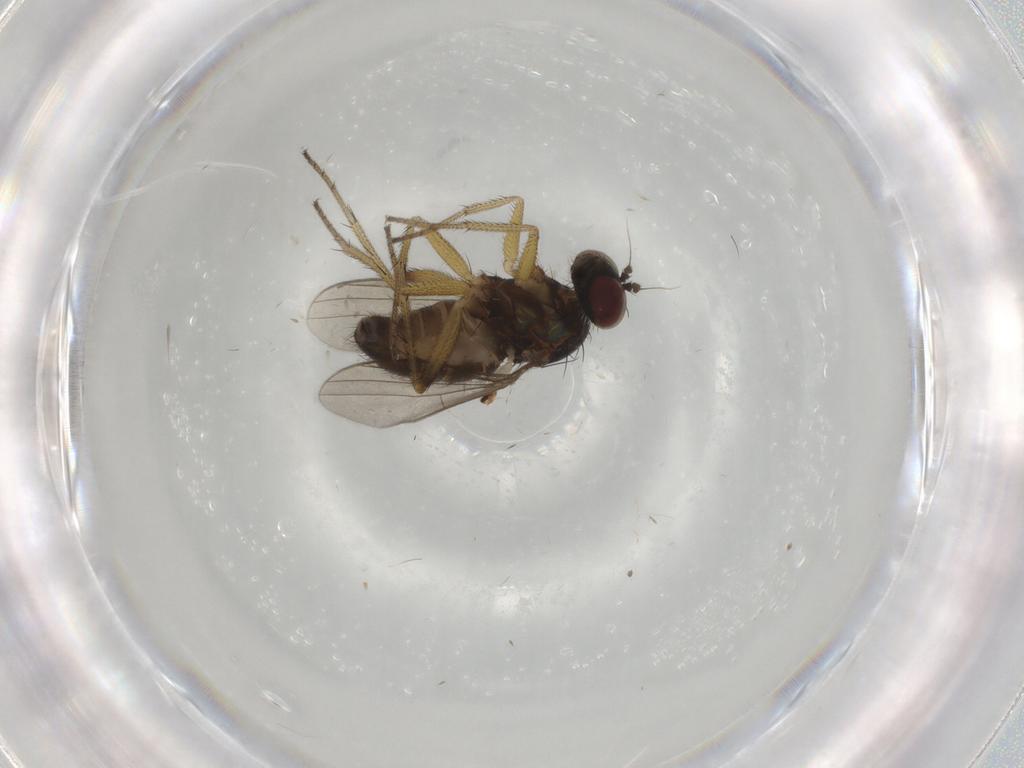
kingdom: Animalia
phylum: Arthropoda
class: Insecta
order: Diptera
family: Dolichopodidae
